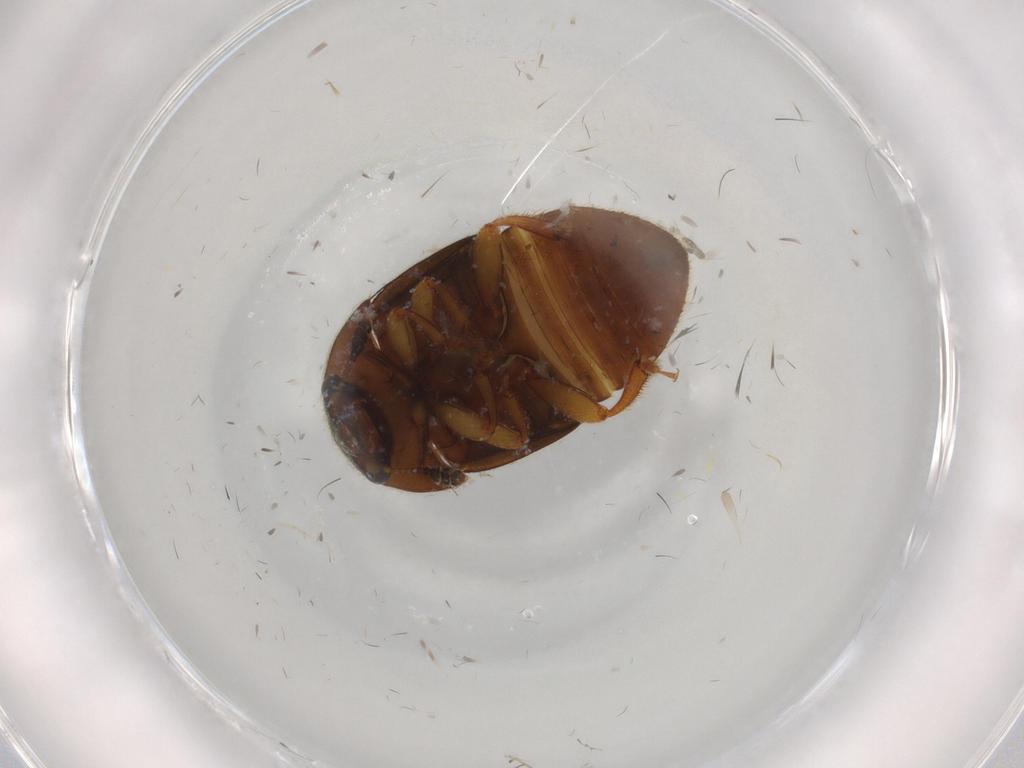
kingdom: Animalia
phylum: Arthropoda
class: Insecta
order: Coleoptera
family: Nitidulidae
